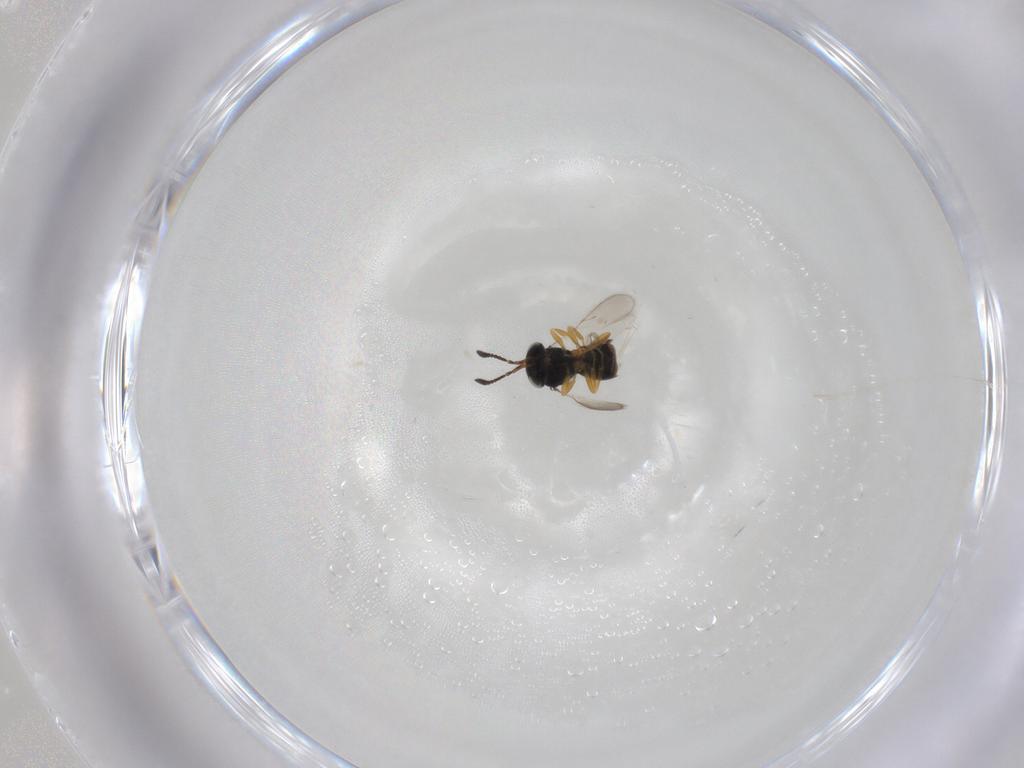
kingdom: Animalia
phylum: Arthropoda
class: Insecta
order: Hymenoptera
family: Scelionidae
